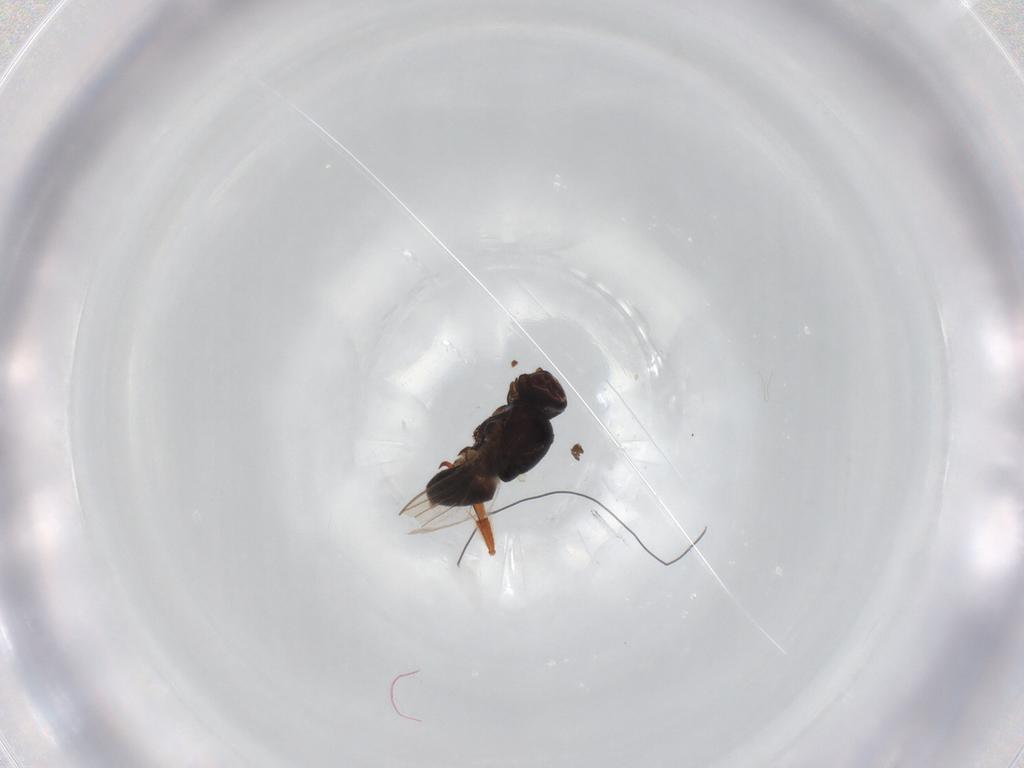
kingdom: Animalia
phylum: Arthropoda
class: Insecta
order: Diptera
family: Chloropidae
